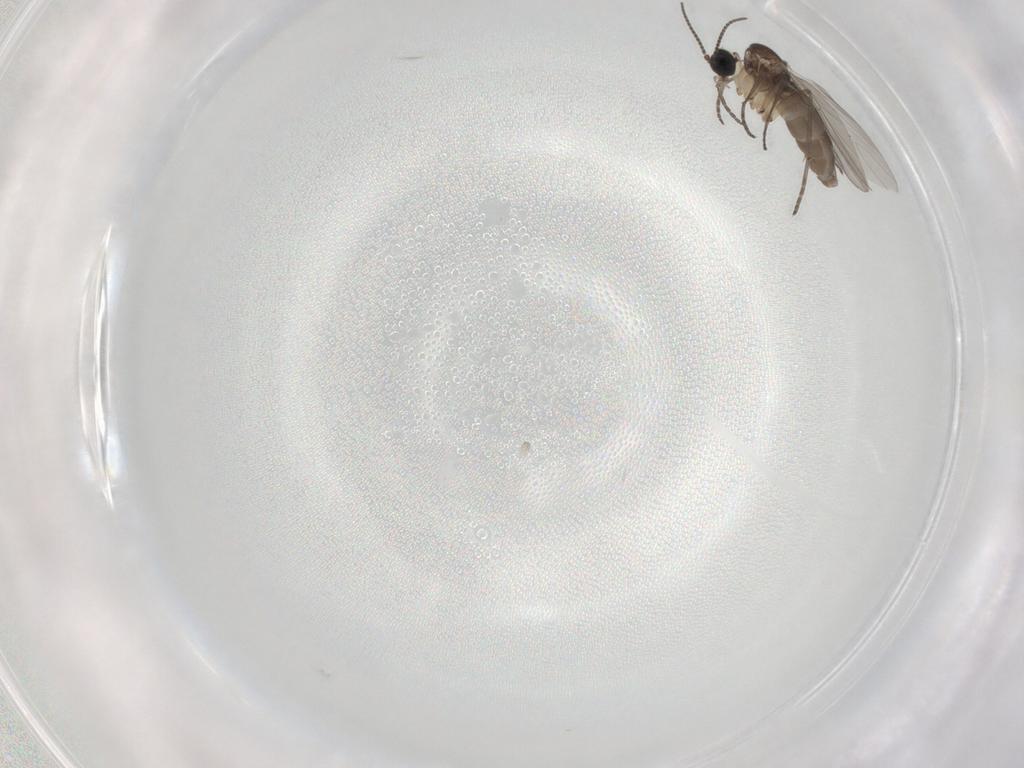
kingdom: Animalia
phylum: Arthropoda
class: Insecta
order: Diptera
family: Sciaridae
